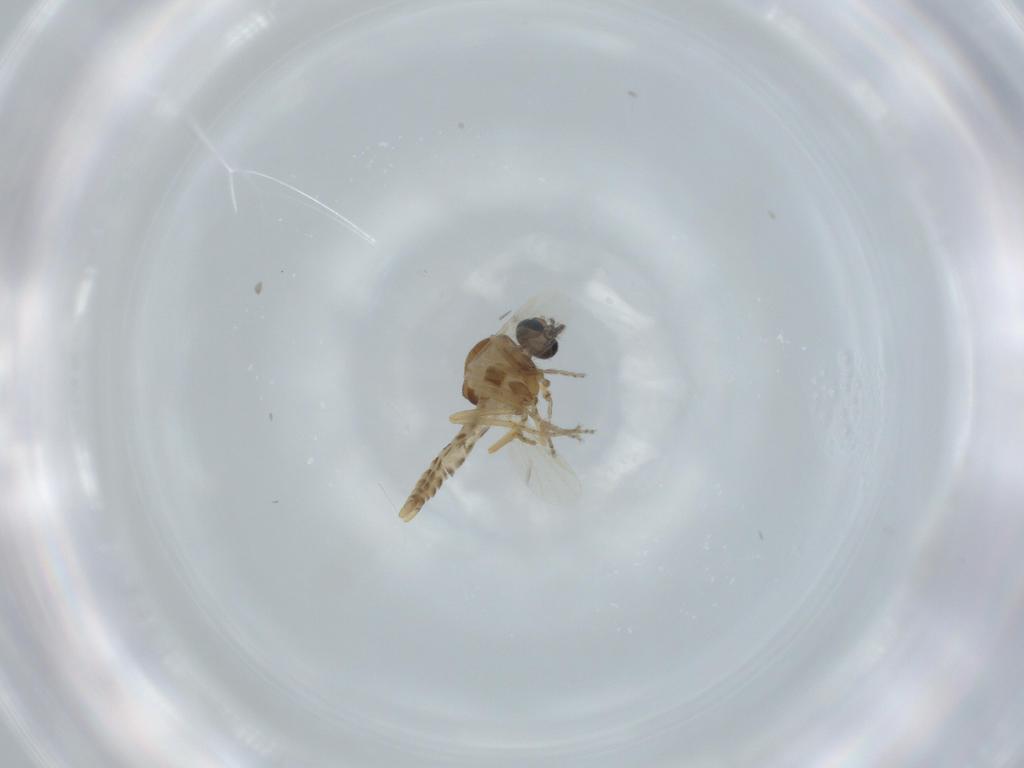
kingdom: Animalia
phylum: Arthropoda
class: Insecta
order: Diptera
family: Ceratopogonidae
